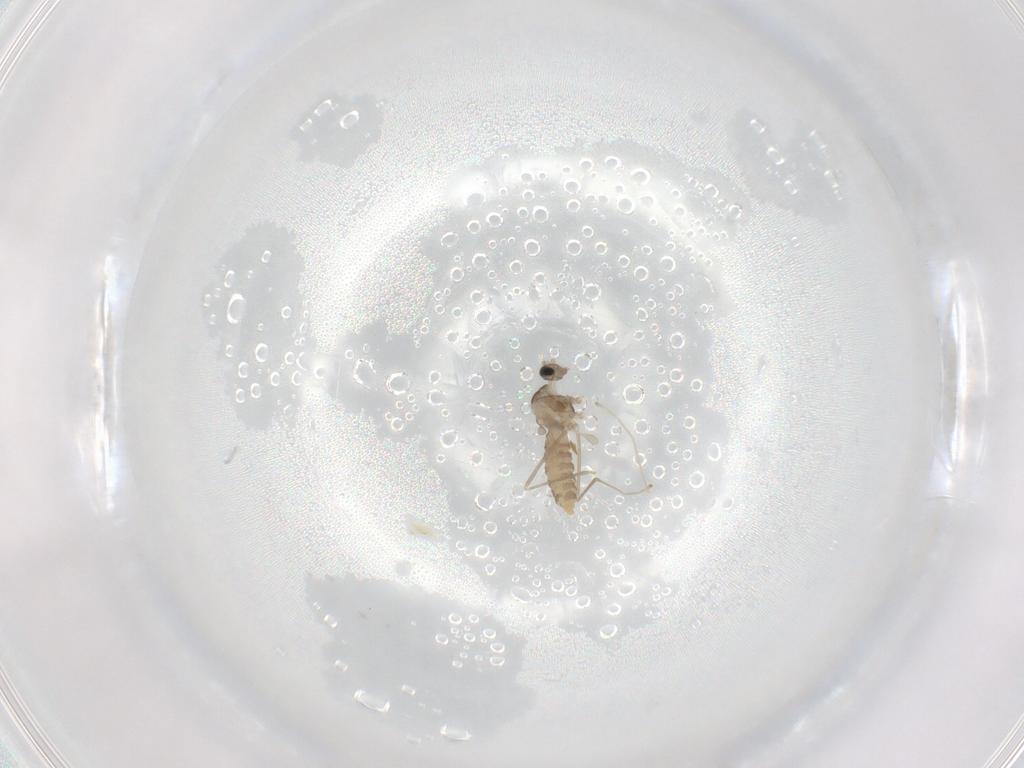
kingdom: Animalia
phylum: Arthropoda
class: Insecta
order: Diptera
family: Cecidomyiidae
